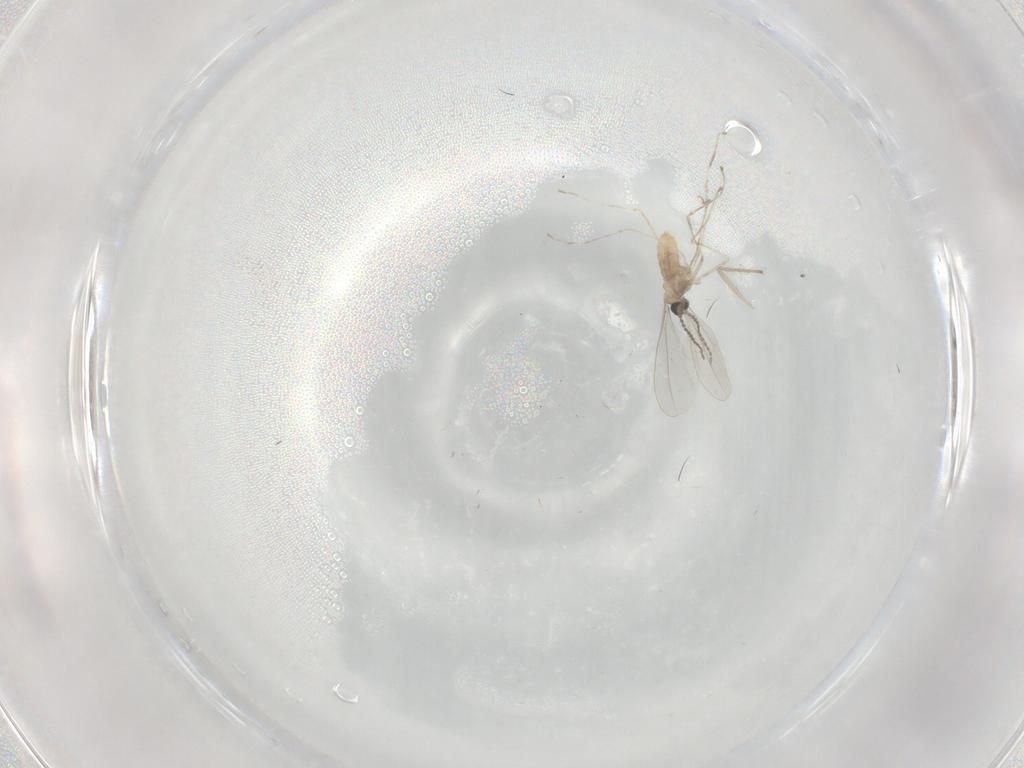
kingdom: Animalia
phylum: Arthropoda
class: Insecta
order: Diptera
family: Cecidomyiidae
